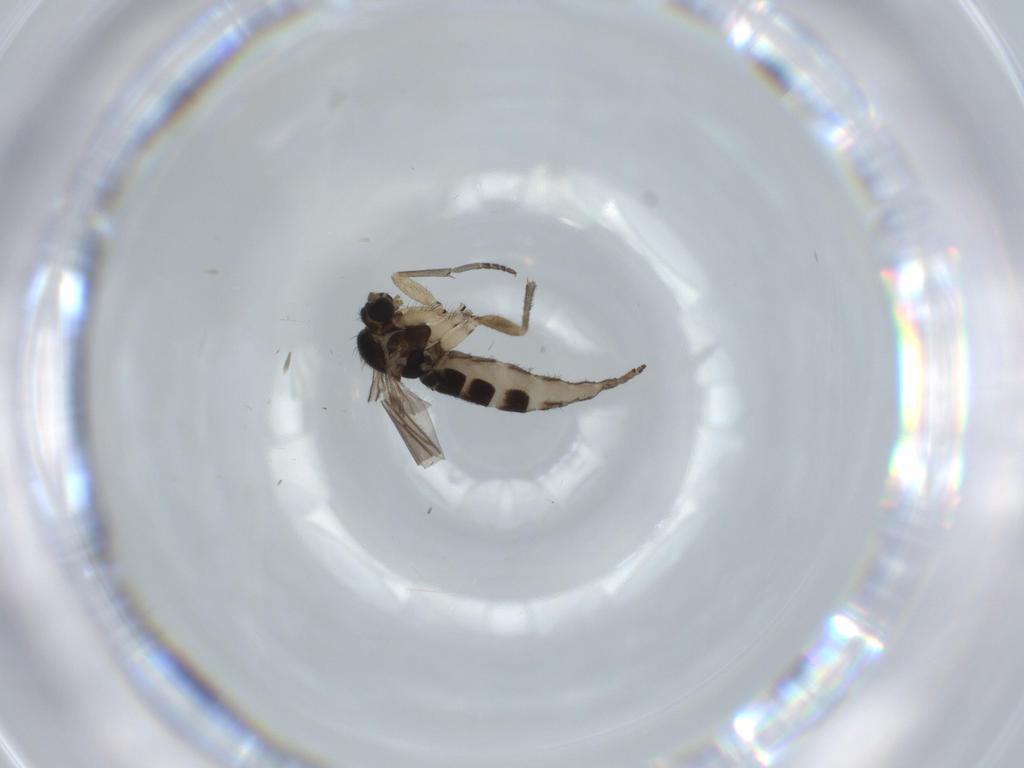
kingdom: Animalia
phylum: Arthropoda
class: Insecta
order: Diptera
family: Sciaridae
